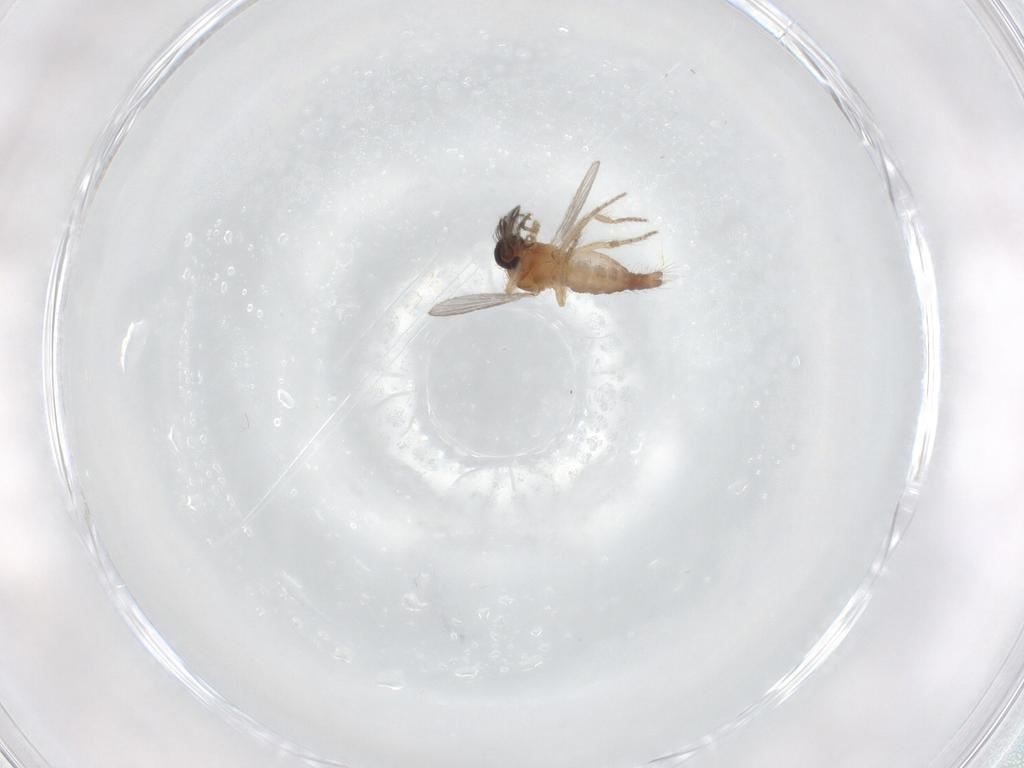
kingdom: Animalia
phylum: Arthropoda
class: Insecta
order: Diptera
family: Ceratopogonidae
